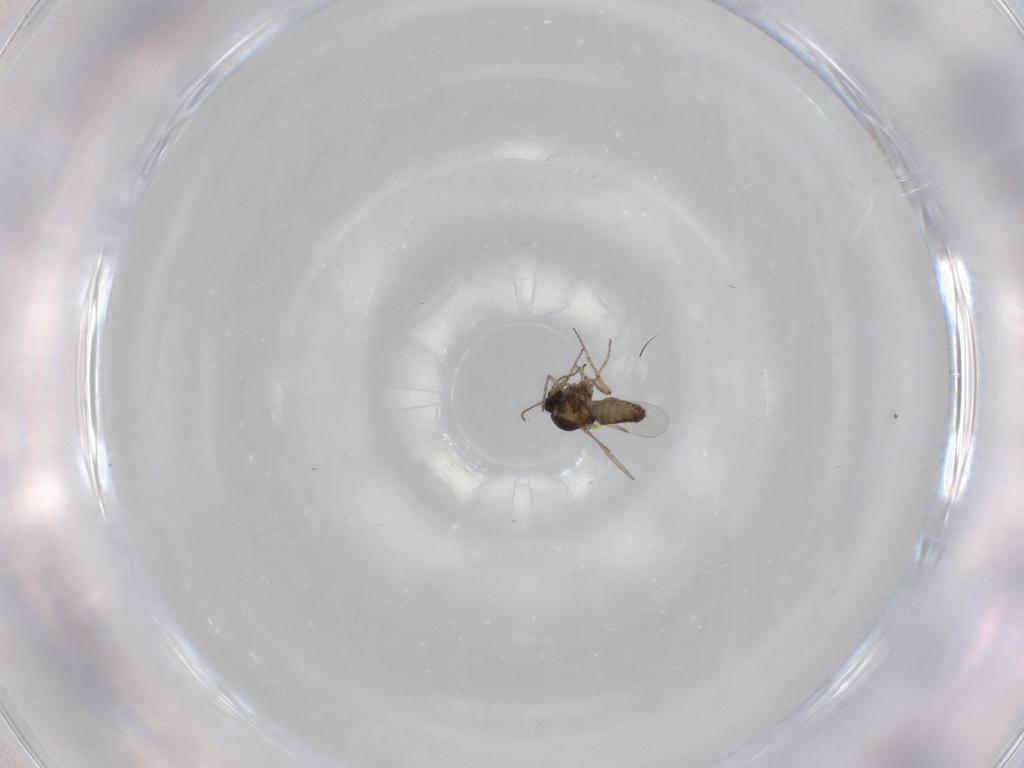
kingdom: Animalia
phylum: Arthropoda
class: Insecta
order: Diptera
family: Ceratopogonidae
